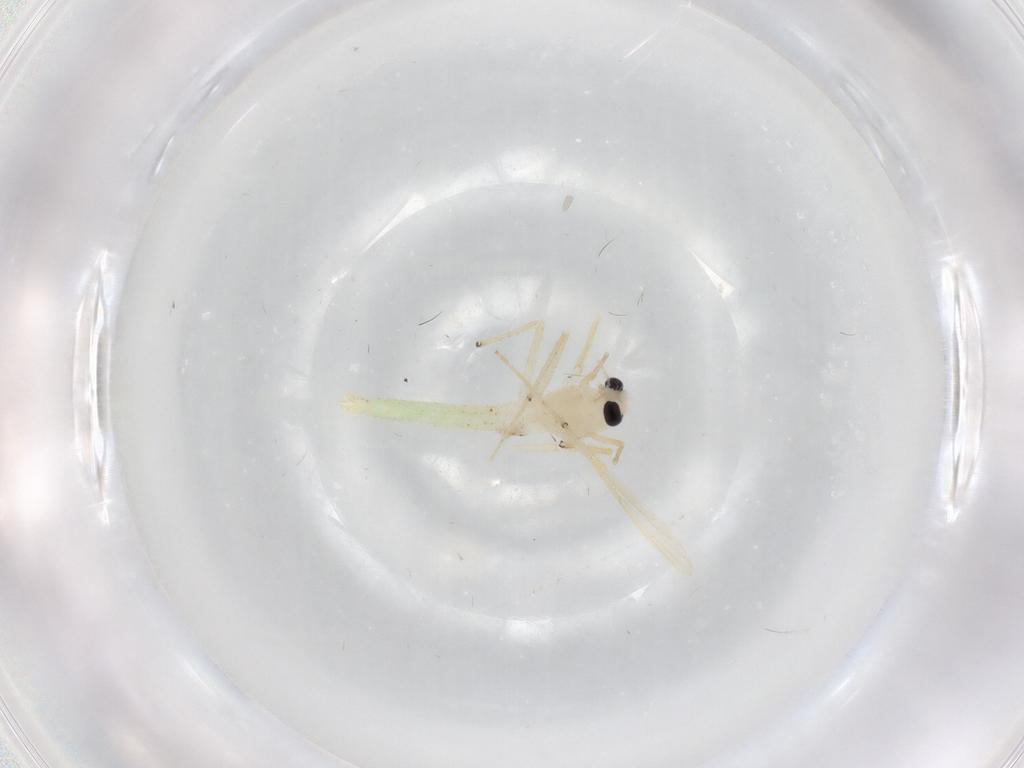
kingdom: Animalia
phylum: Arthropoda
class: Insecta
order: Diptera
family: Chironomidae
